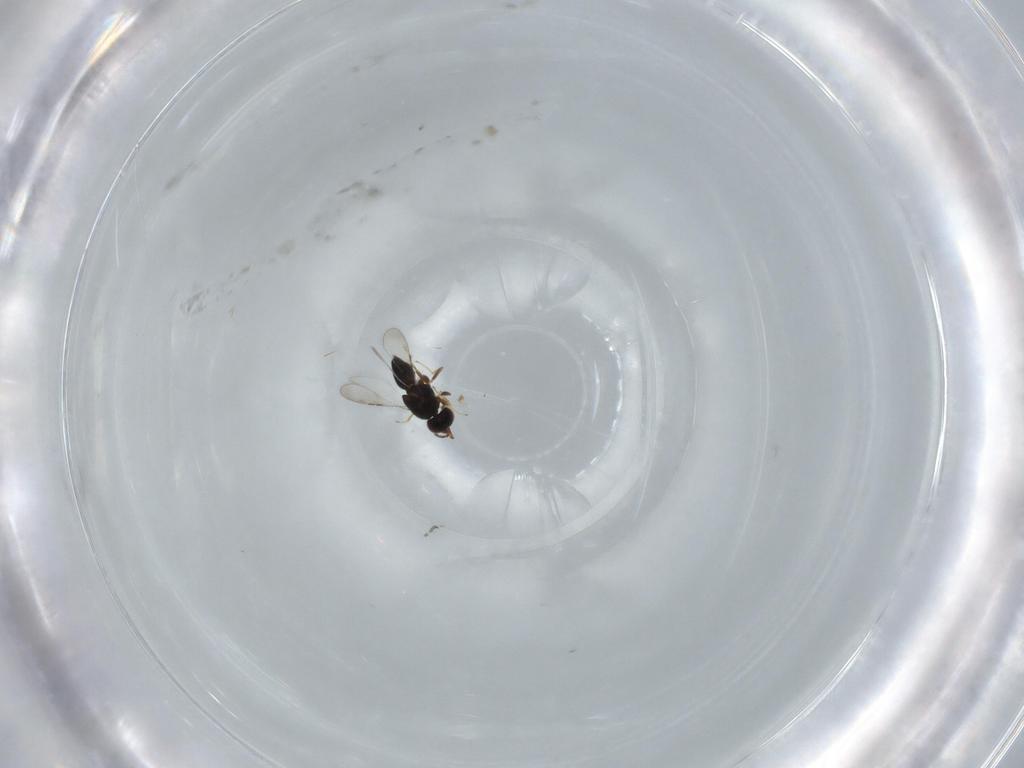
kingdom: Animalia
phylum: Arthropoda
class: Insecta
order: Hymenoptera
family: Ceraphronidae
